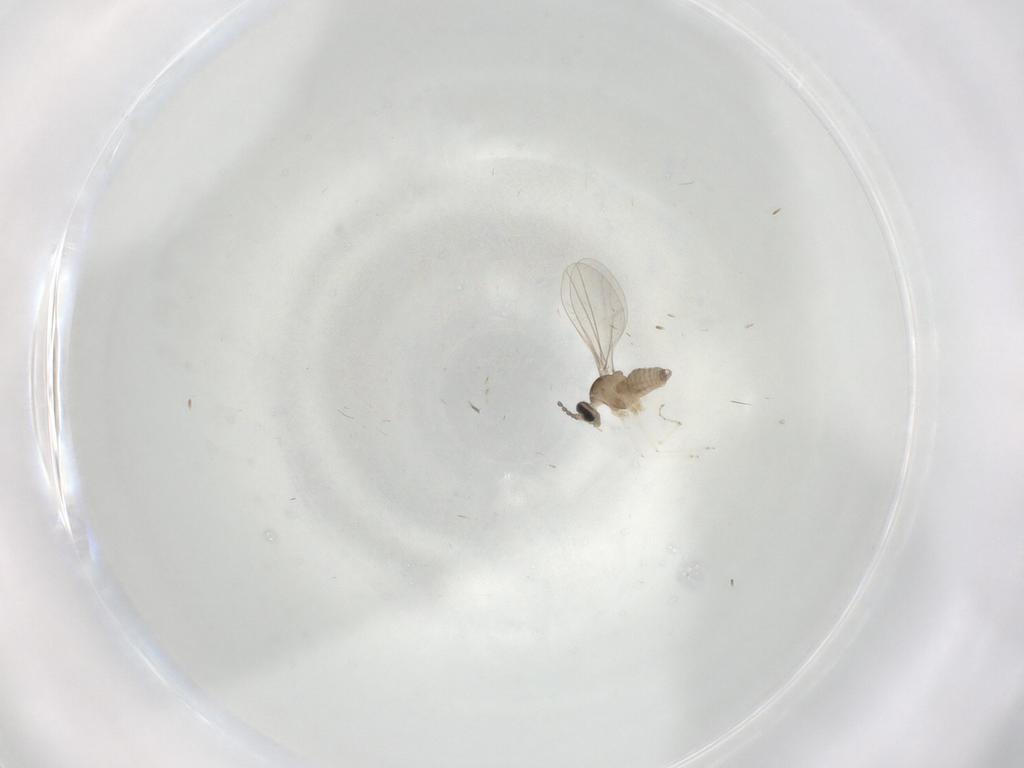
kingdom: Animalia
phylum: Arthropoda
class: Insecta
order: Diptera
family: Cecidomyiidae
